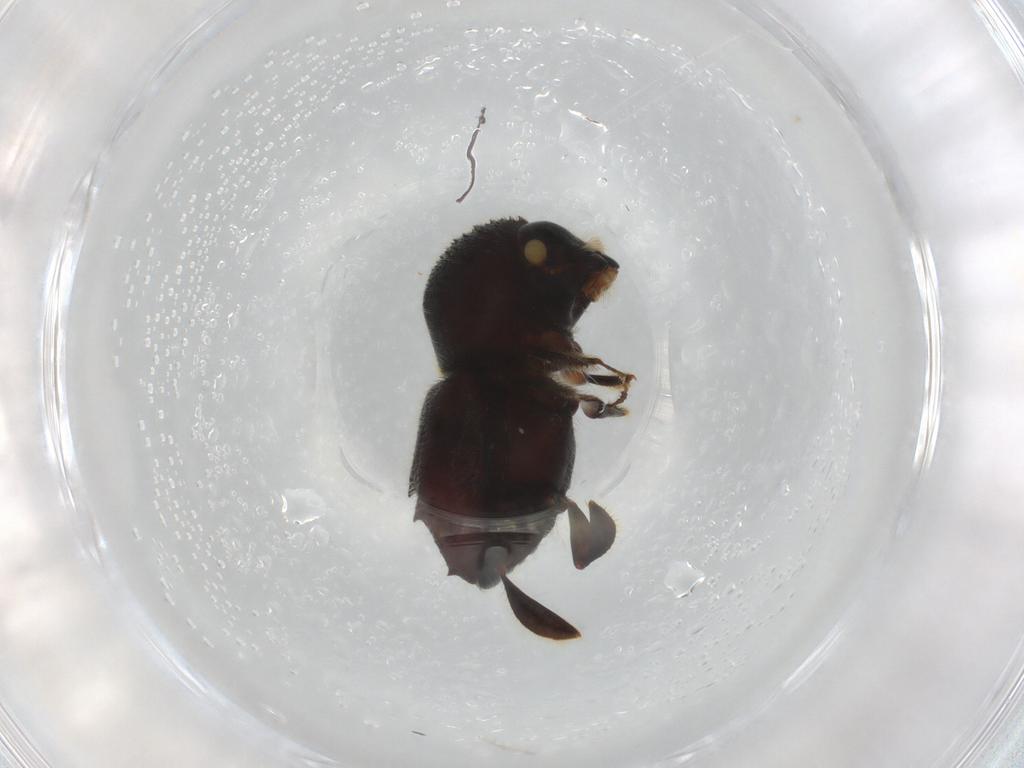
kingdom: Animalia
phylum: Arthropoda
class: Insecta
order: Coleoptera
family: Curculionidae
